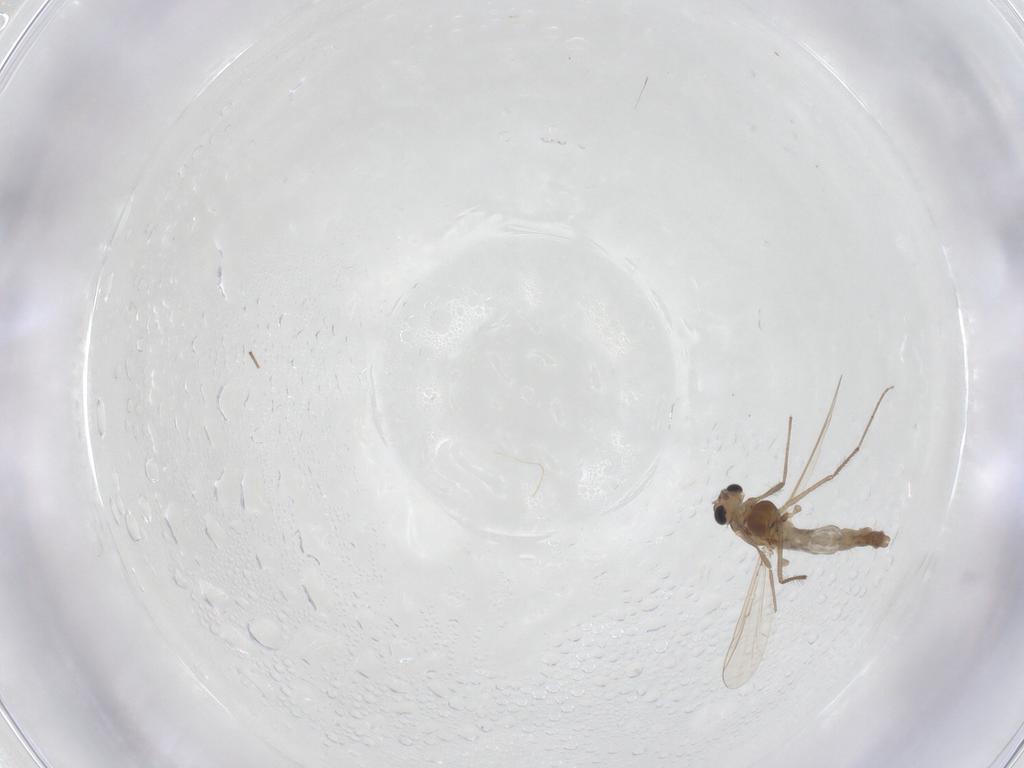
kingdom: Animalia
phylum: Arthropoda
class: Insecta
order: Diptera
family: Chironomidae
